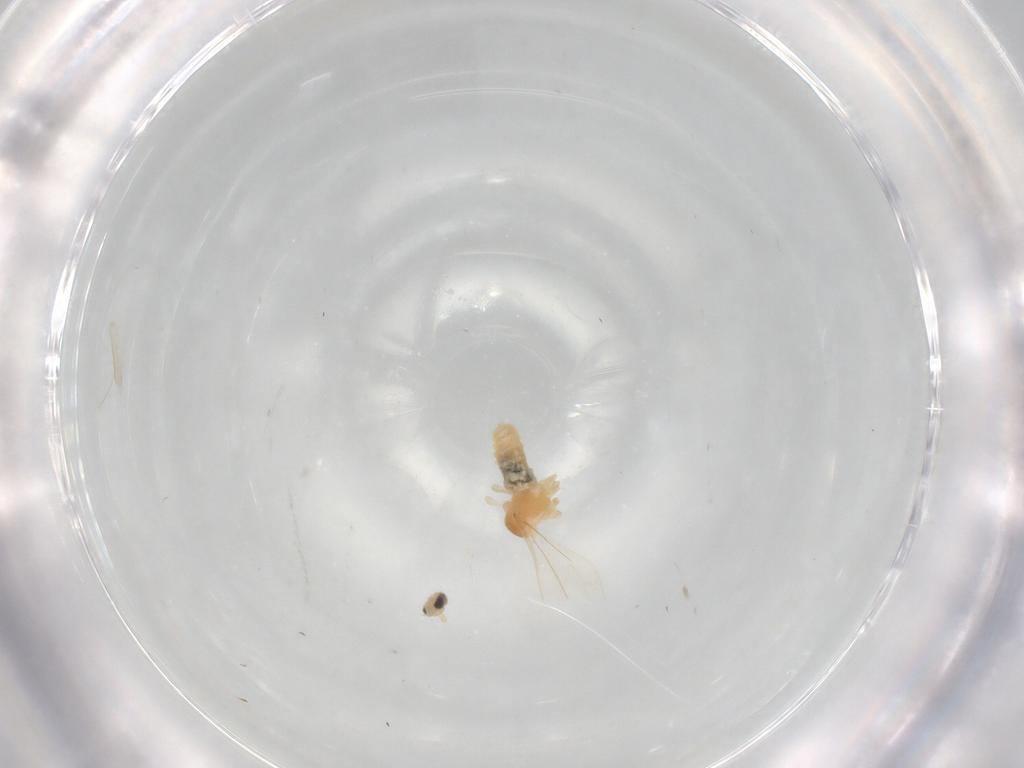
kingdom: Animalia
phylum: Arthropoda
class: Insecta
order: Diptera
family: Cecidomyiidae
